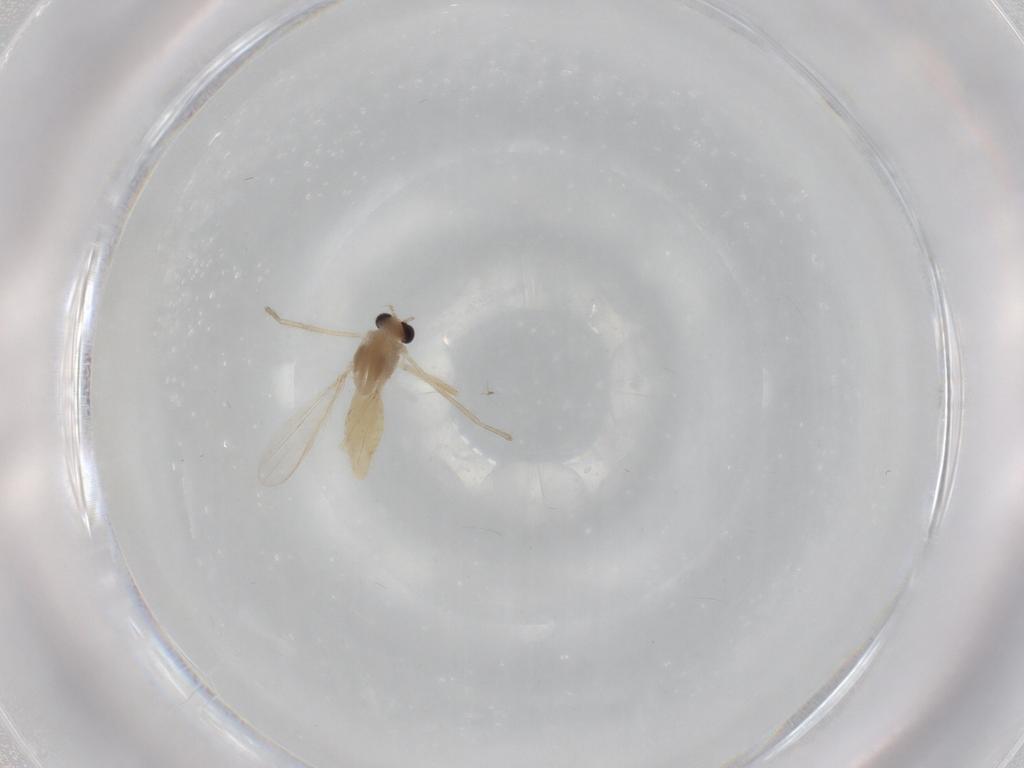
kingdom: Animalia
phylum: Arthropoda
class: Insecta
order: Diptera
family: Chironomidae
